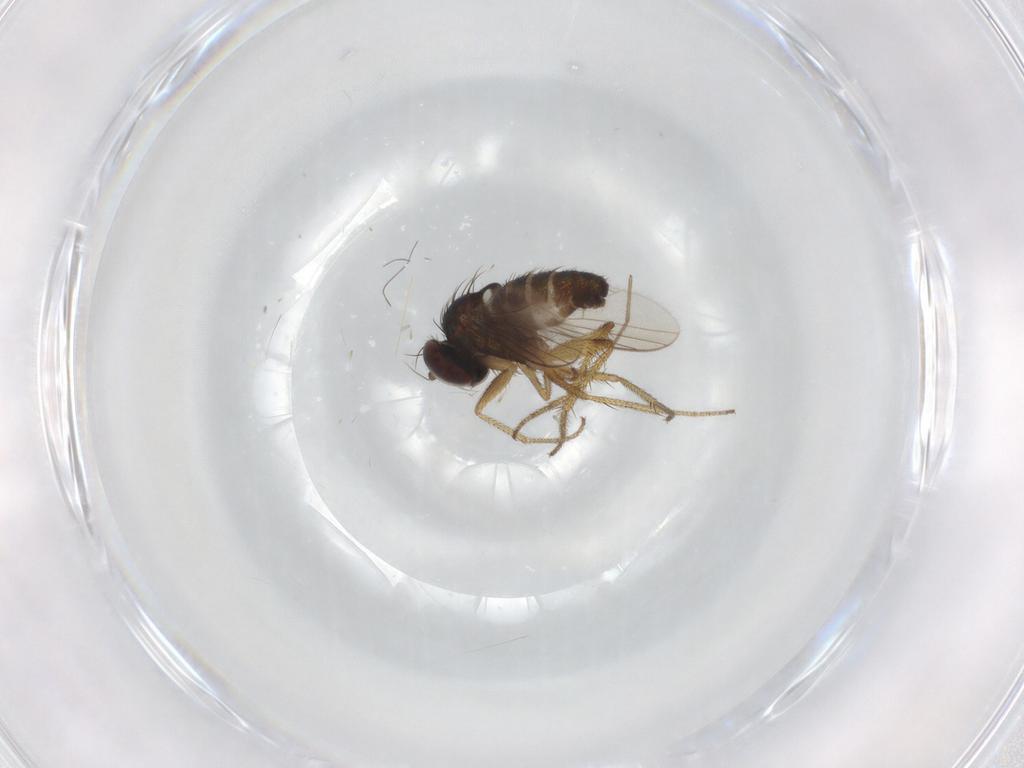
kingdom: Animalia
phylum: Arthropoda
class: Insecta
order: Diptera
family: Dolichopodidae
